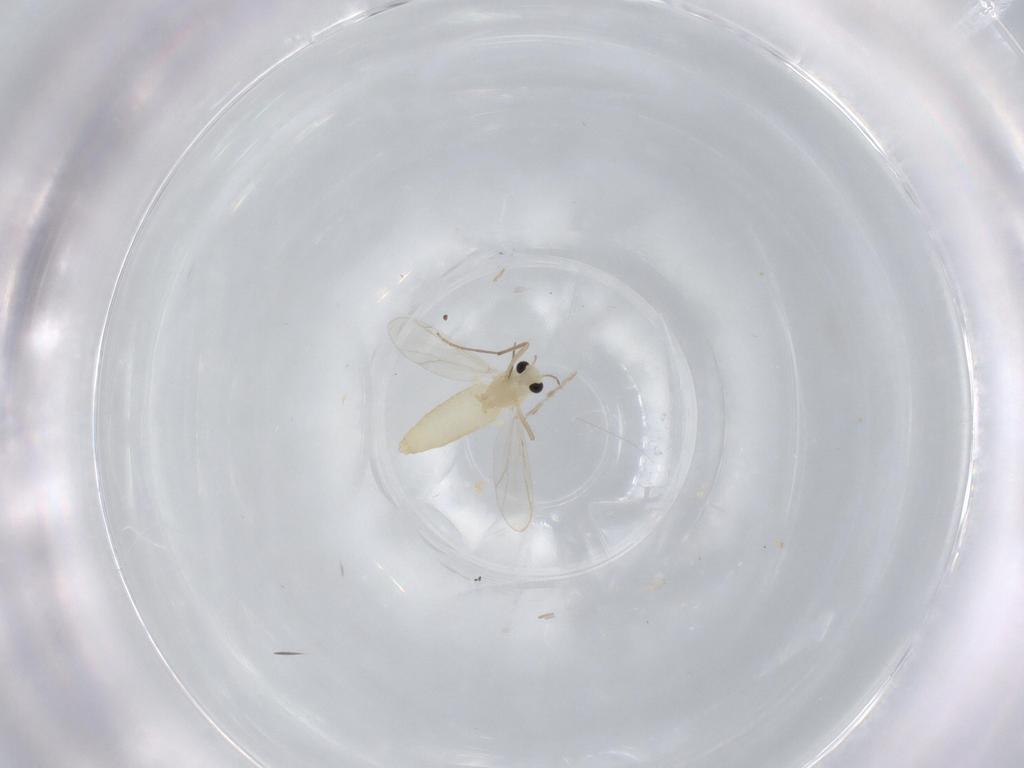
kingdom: Animalia
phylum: Arthropoda
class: Insecta
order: Diptera
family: Chironomidae
